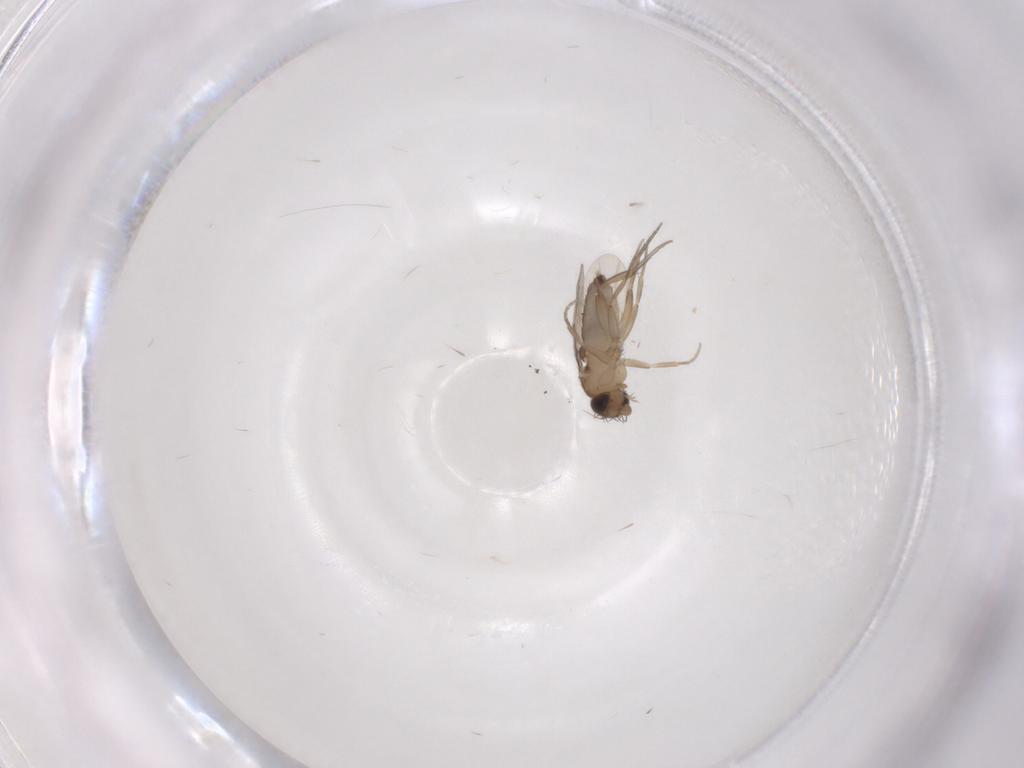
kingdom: Animalia
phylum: Arthropoda
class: Insecta
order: Diptera
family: Phoridae
